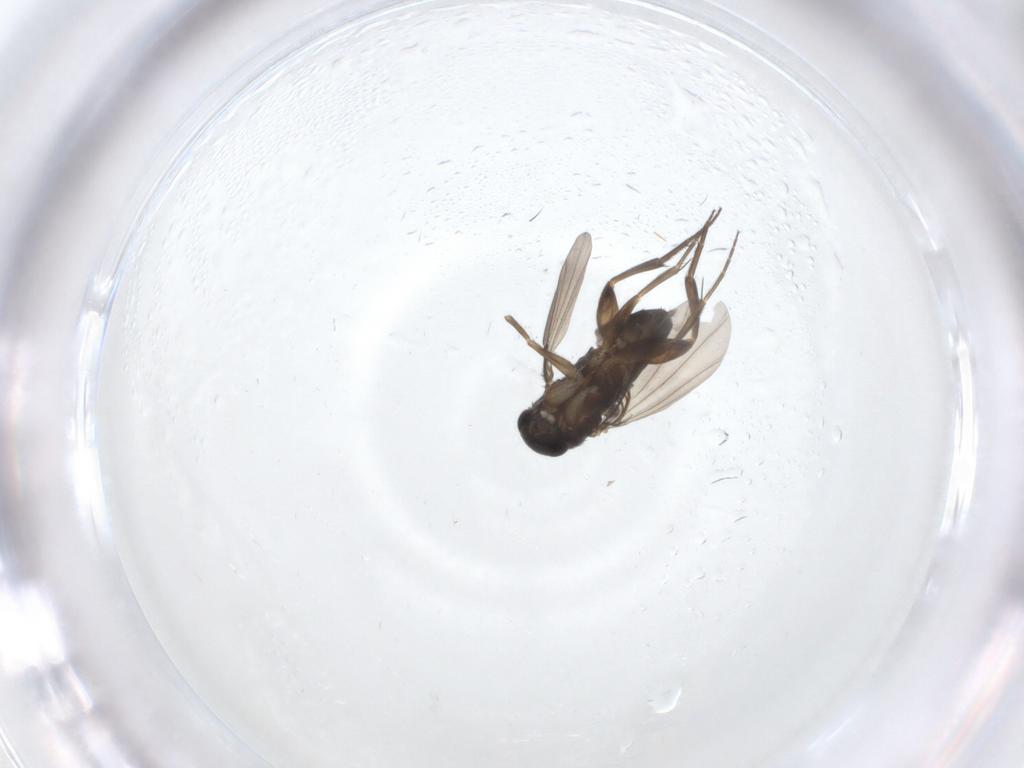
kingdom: Animalia
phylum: Arthropoda
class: Insecta
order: Diptera
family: Phoridae
